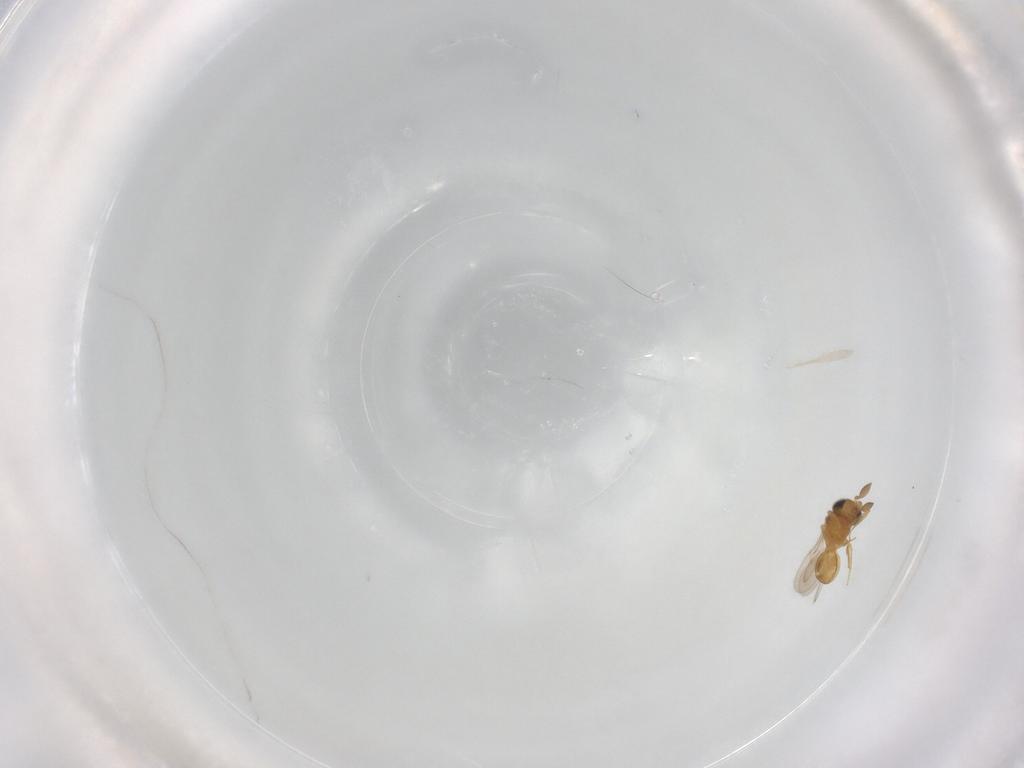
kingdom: Animalia
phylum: Arthropoda
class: Insecta
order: Hymenoptera
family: Scelionidae
